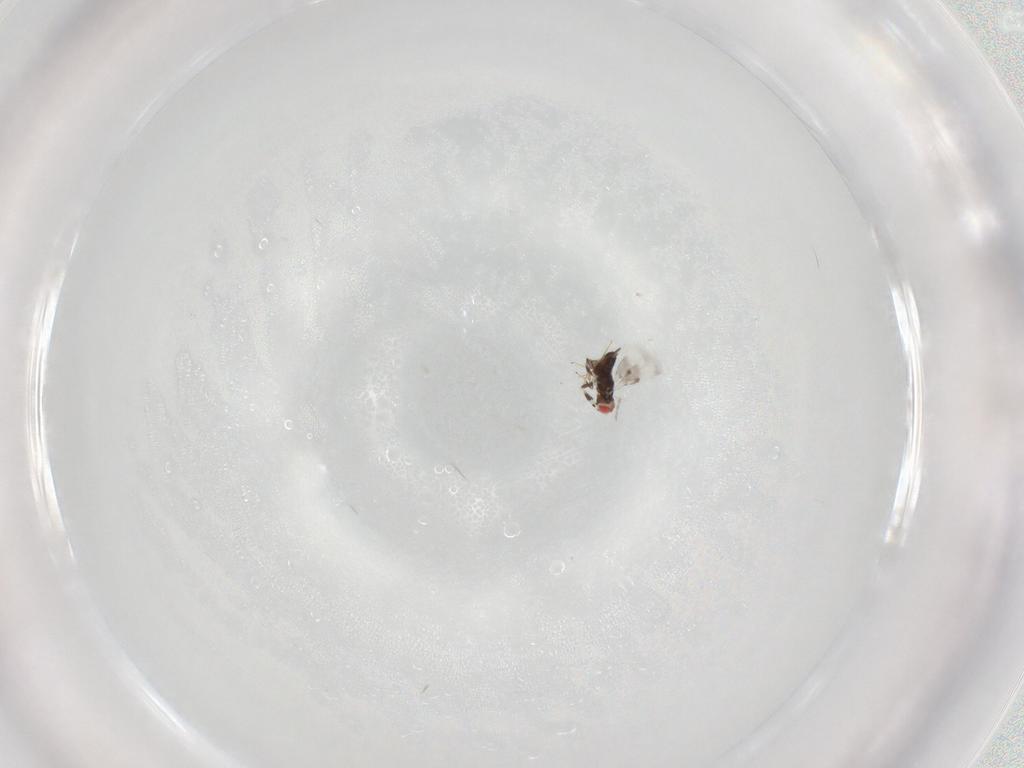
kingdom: Animalia
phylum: Arthropoda
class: Insecta
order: Hymenoptera
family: Azotidae
